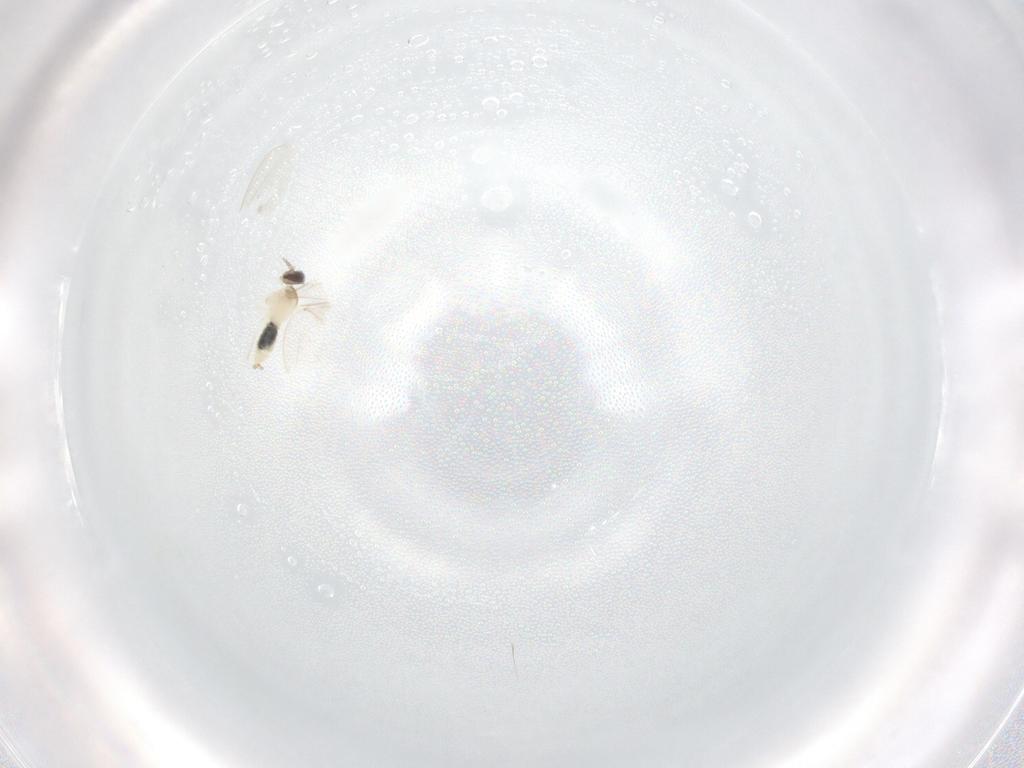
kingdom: Animalia
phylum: Arthropoda
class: Insecta
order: Diptera
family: Cecidomyiidae
